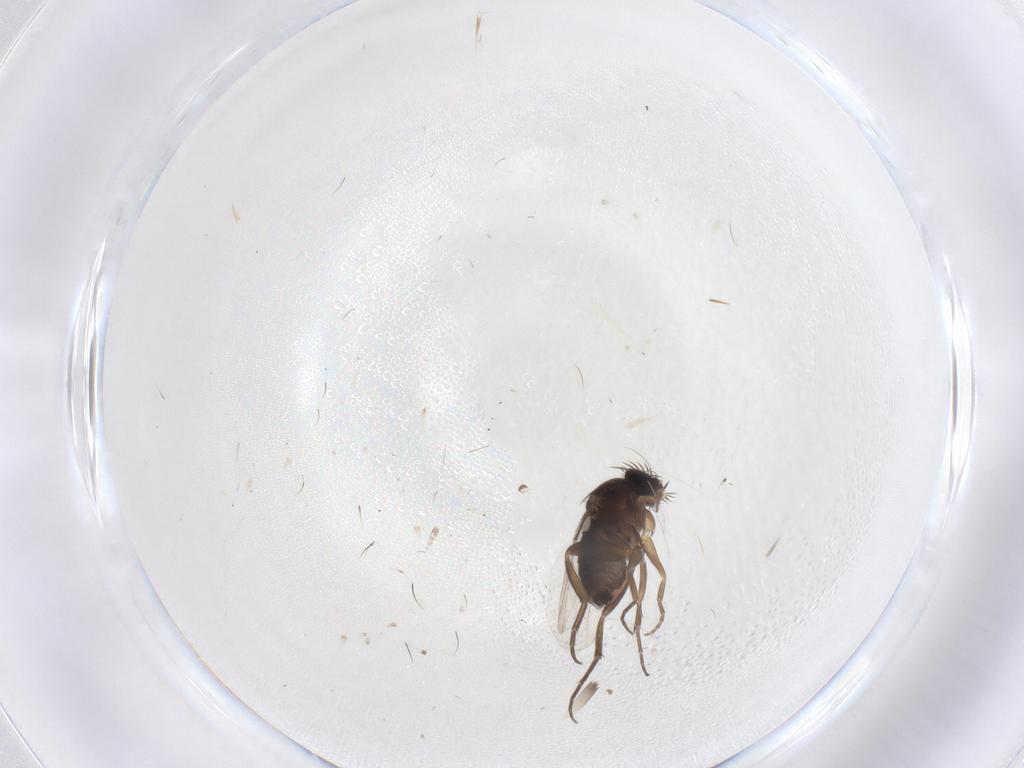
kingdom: Animalia
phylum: Arthropoda
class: Insecta
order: Diptera
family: Phoridae
